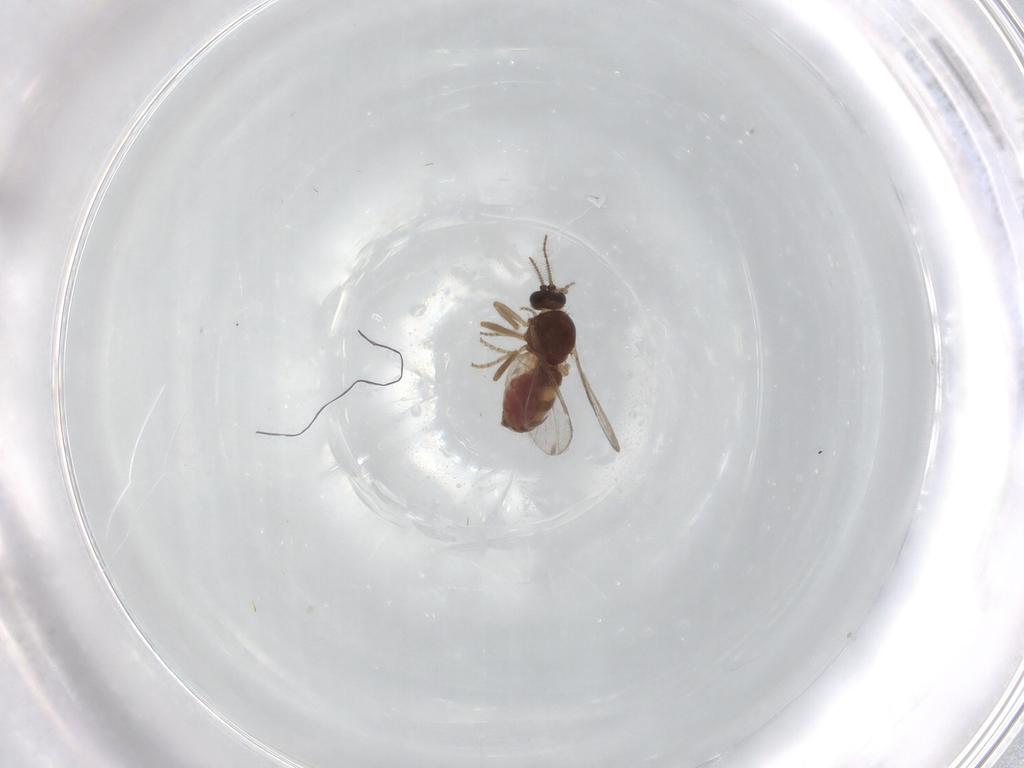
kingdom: Animalia
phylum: Arthropoda
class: Insecta
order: Diptera
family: Ceratopogonidae
